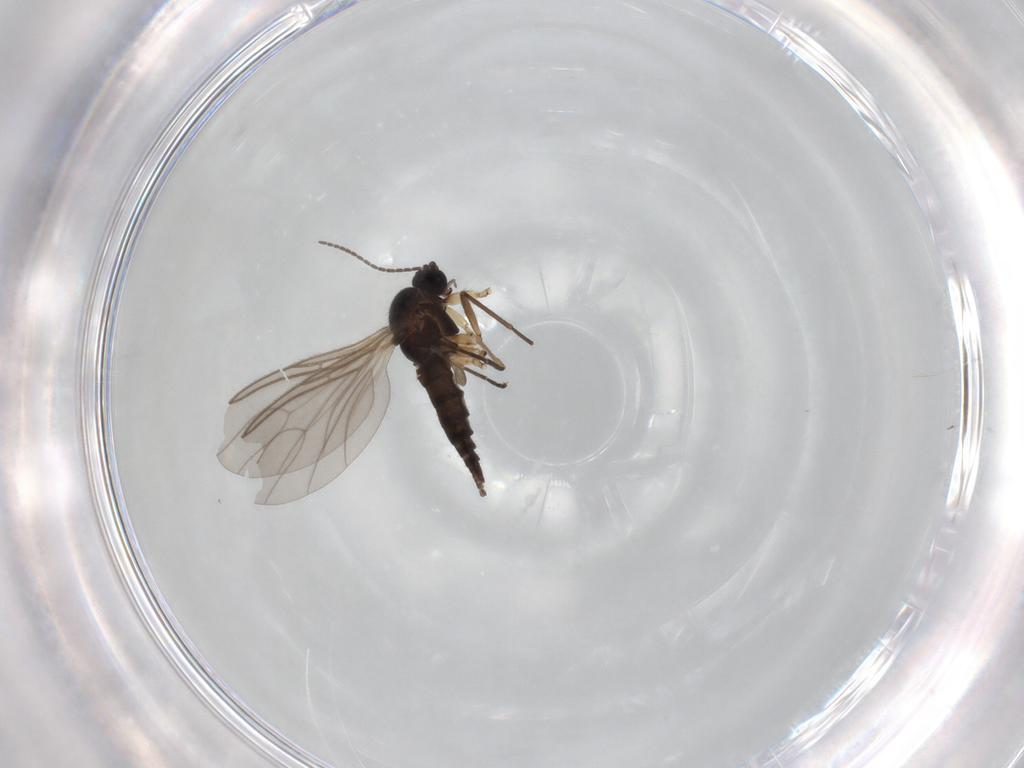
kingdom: Animalia
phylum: Arthropoda
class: Insecta
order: Diptera
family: Sciaridae
